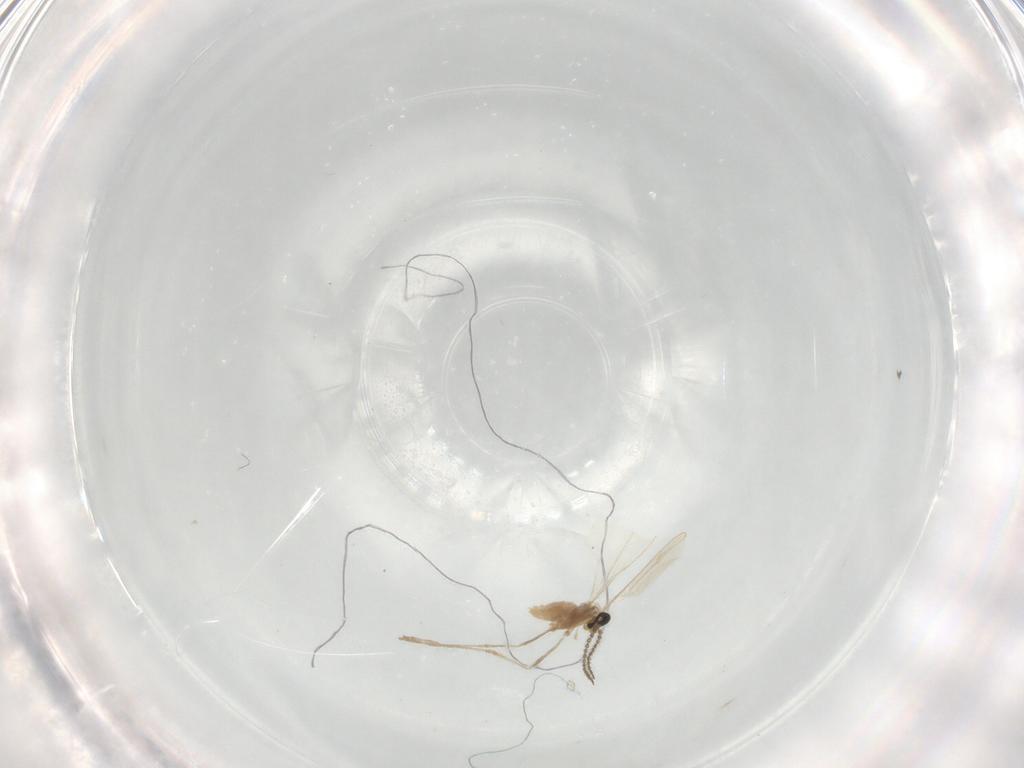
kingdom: Animalia
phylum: Arthropoda
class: Insecta
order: Diptera
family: Cecidomyiidae
